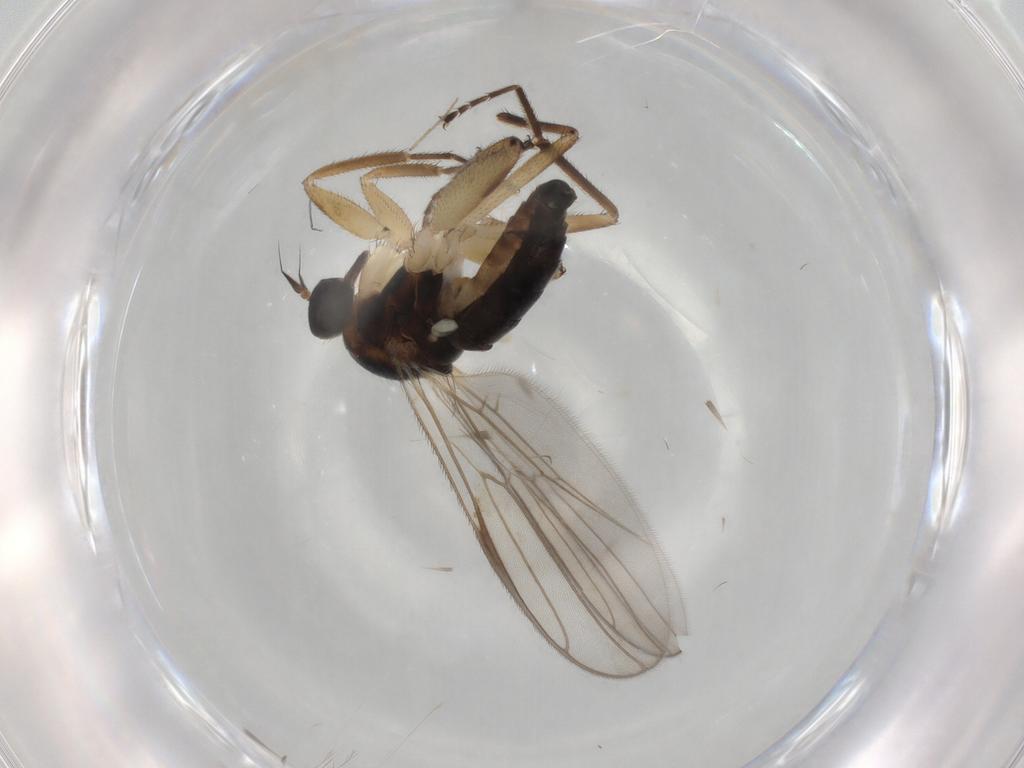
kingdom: Animalia
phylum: Arthropoda
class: Insecta
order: Diptera
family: Hybotidae
